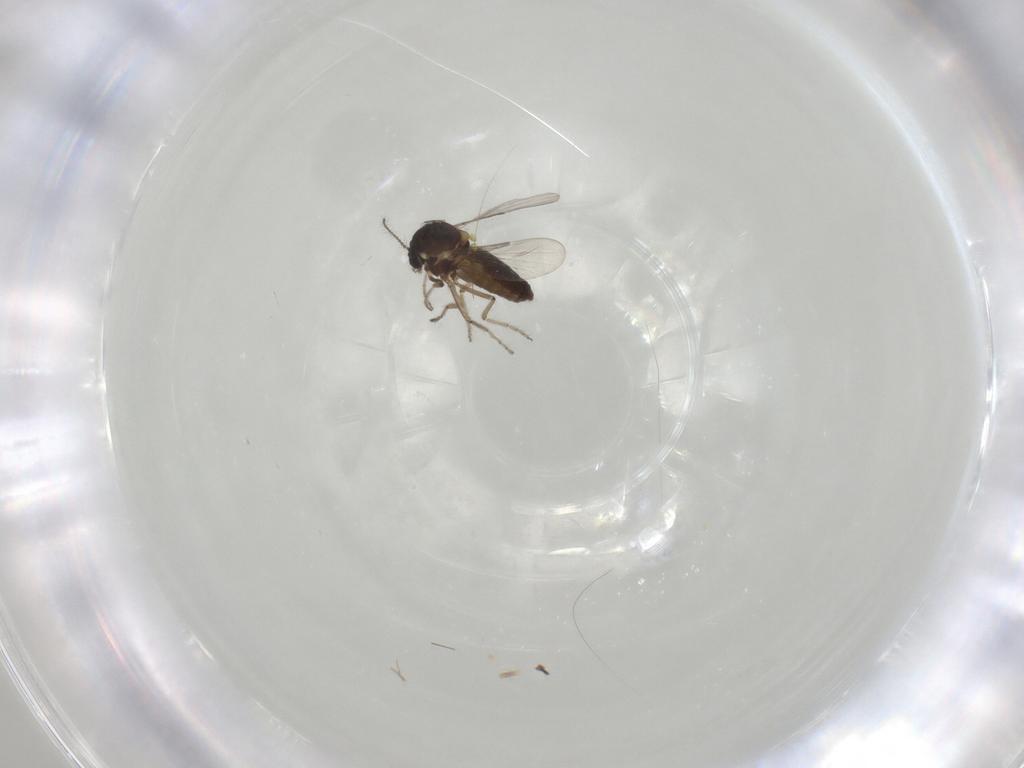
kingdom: Animalia
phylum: Arthropoda
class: Insecta
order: Diptera
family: Ceratopogonidae
